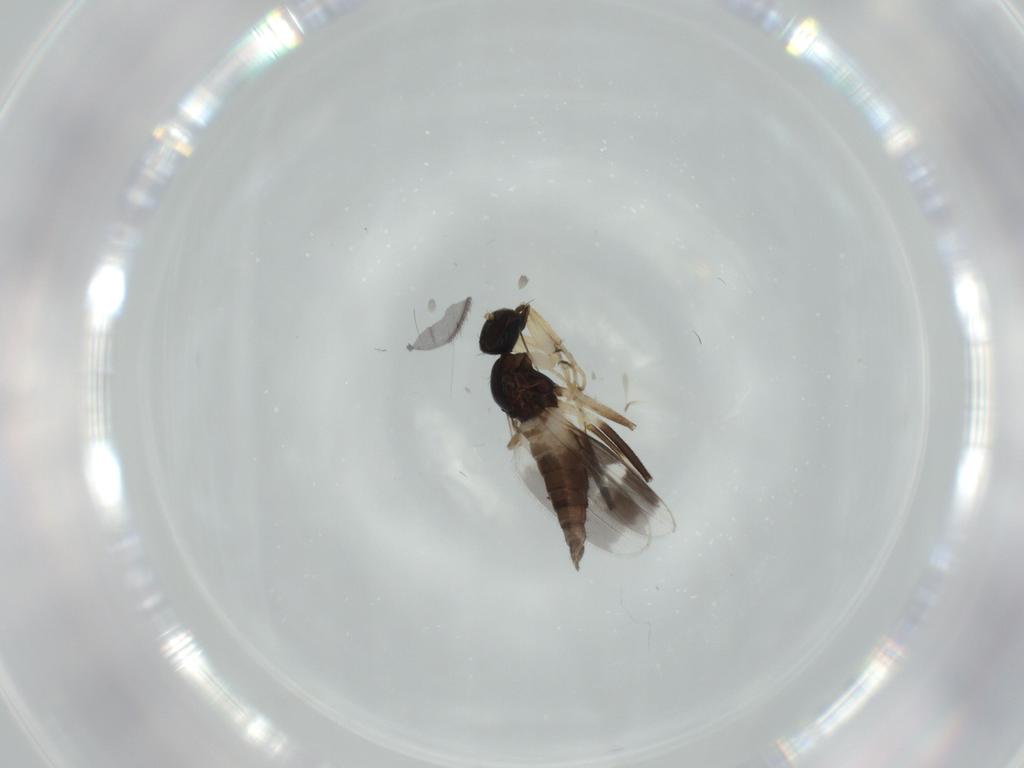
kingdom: Animalia
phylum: Arthropoda
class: Insecta
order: Diptera
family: Hybotidae
